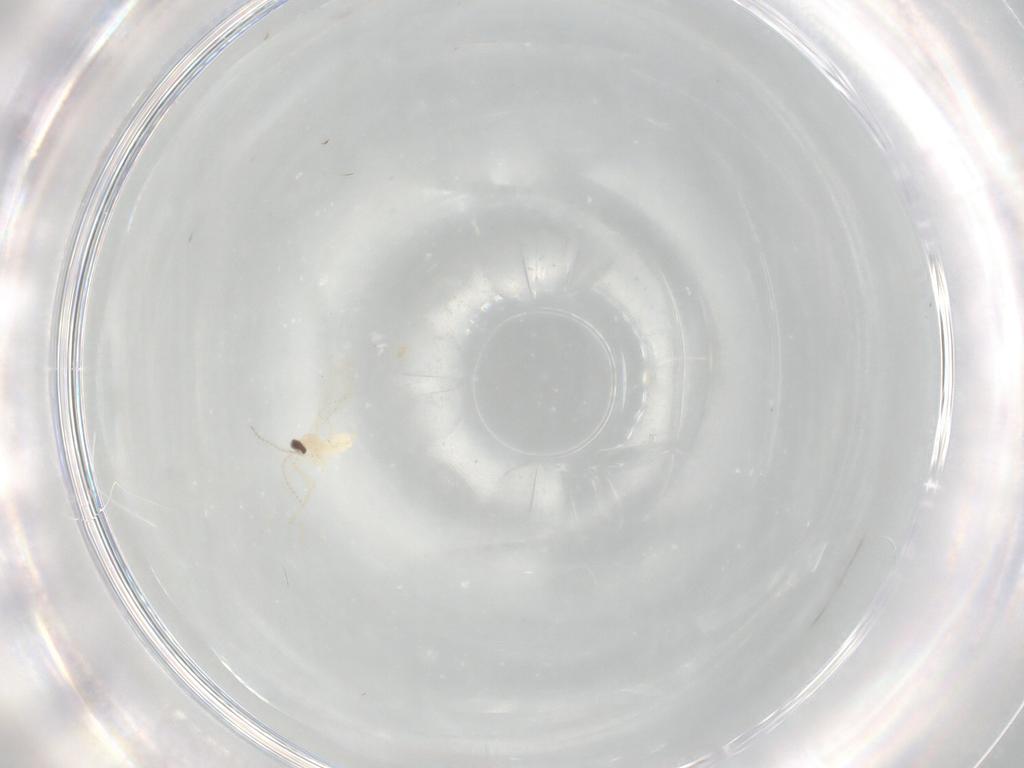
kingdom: Animalia
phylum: Arthropoda
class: Insecta
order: Diptera
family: Cecidomyiidae
